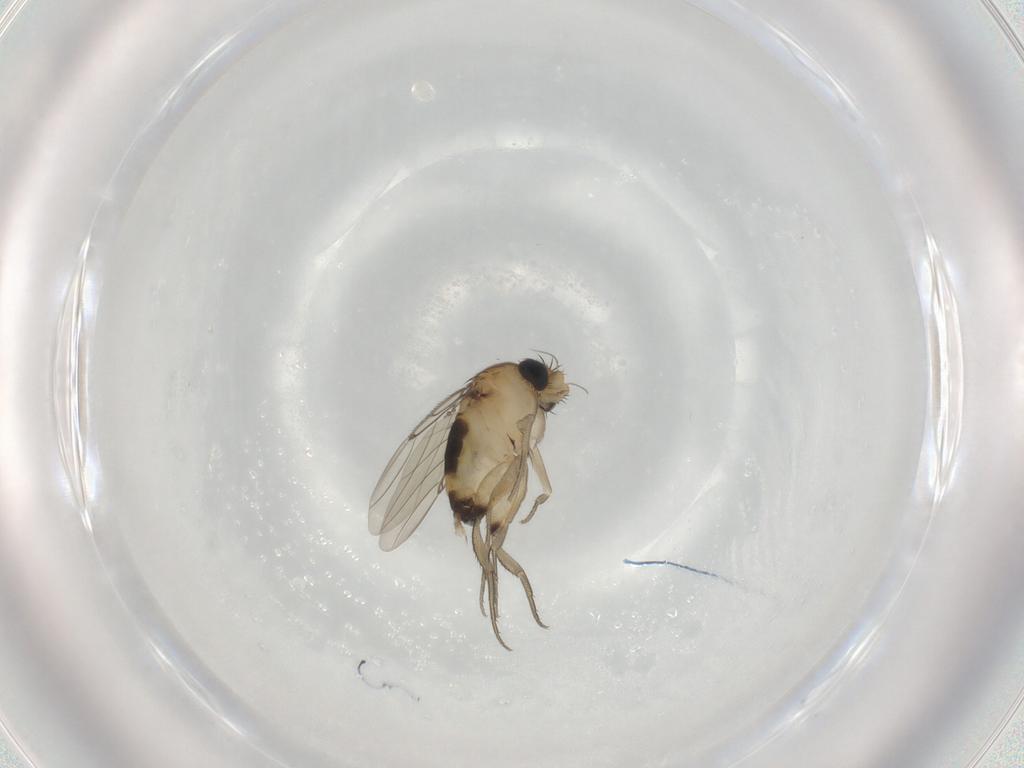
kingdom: Animalia
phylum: Arthropoda
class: Insecta
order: Diptera
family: Phoridae
